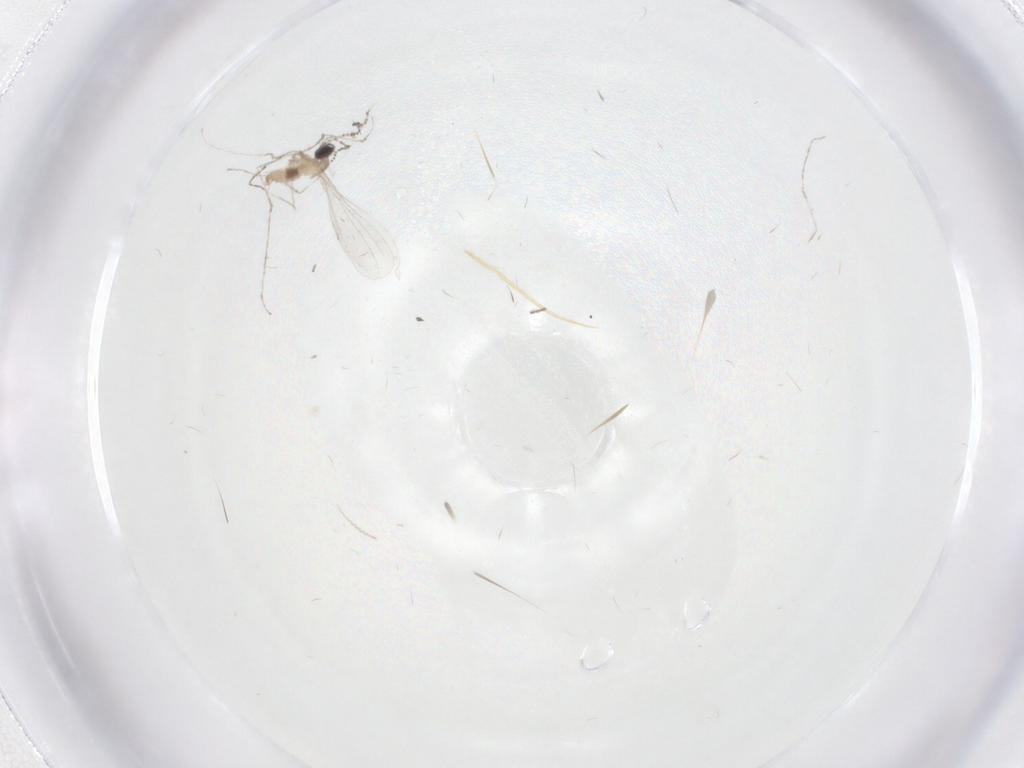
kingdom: Animalia
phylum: Arthropoda
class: Insecta
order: Diptera
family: Cecidomyiidae
